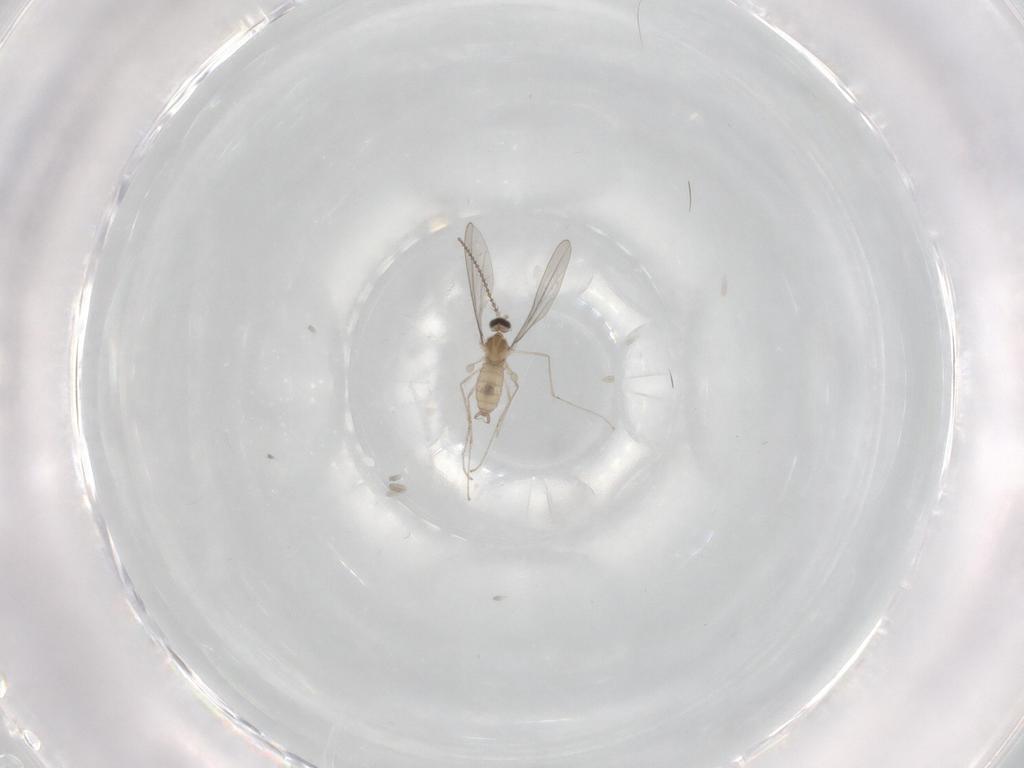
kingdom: Animalia
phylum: Arthropoda
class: Insecta
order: Diptera
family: Cecidomyiidae
